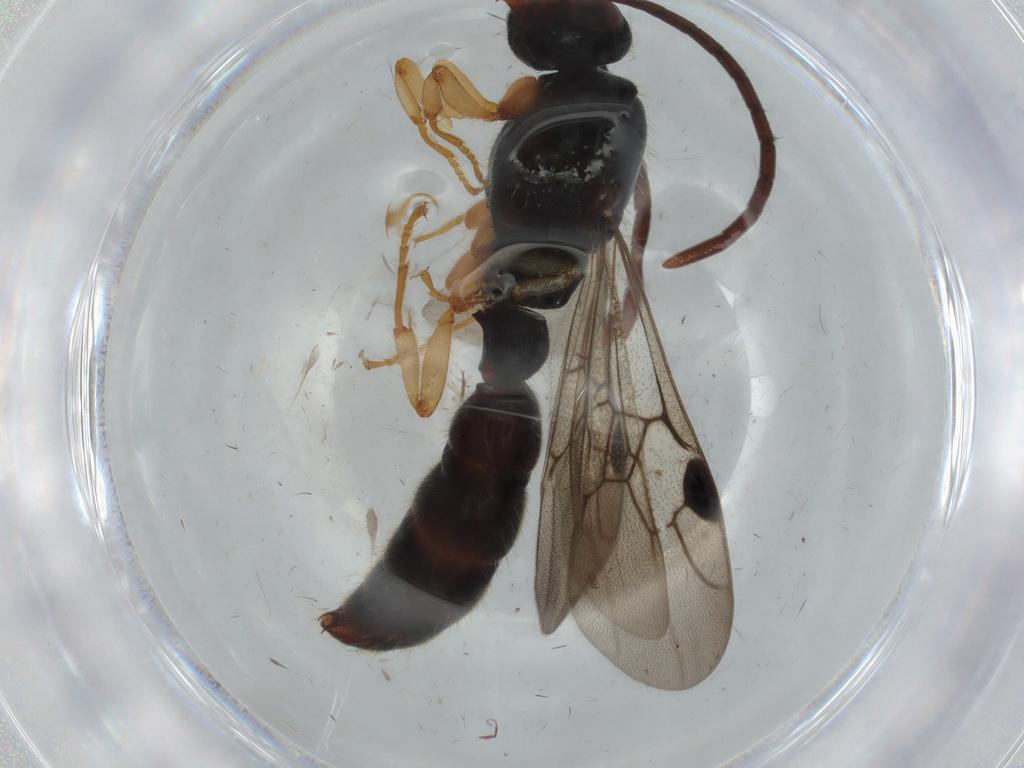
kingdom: Animalia
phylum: Arthropoda
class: Insecta
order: Hymenoptera
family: Formicidae
